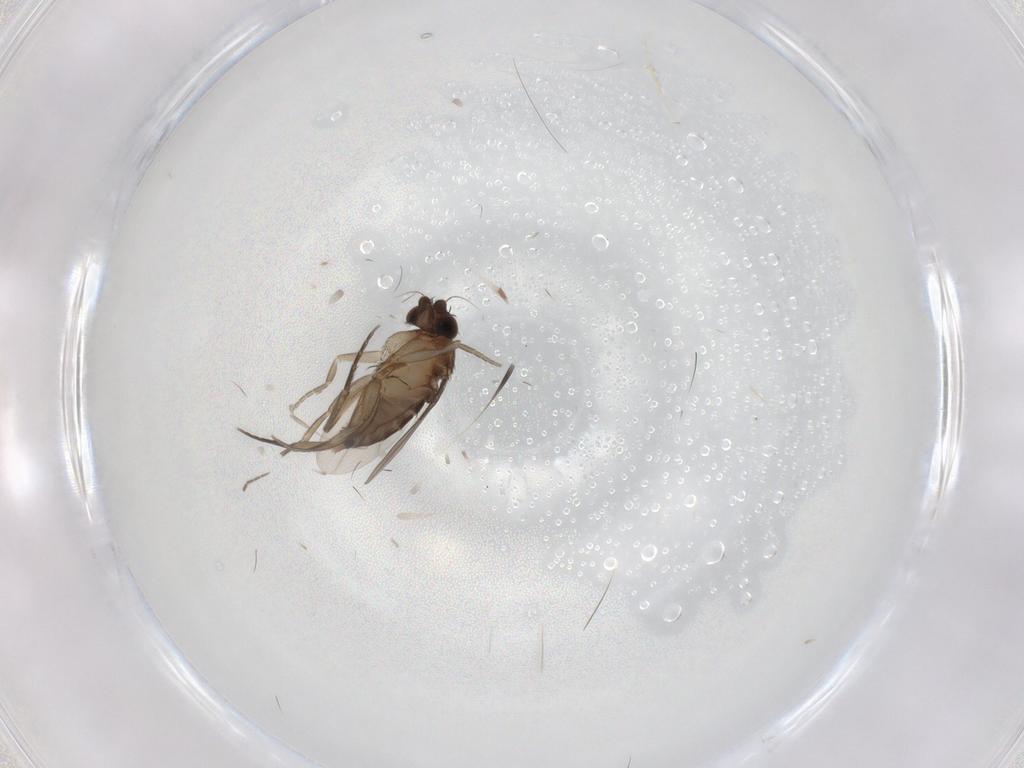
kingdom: Animalia
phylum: Arthropoda
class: Insecta
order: Diptera
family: Phoridae
